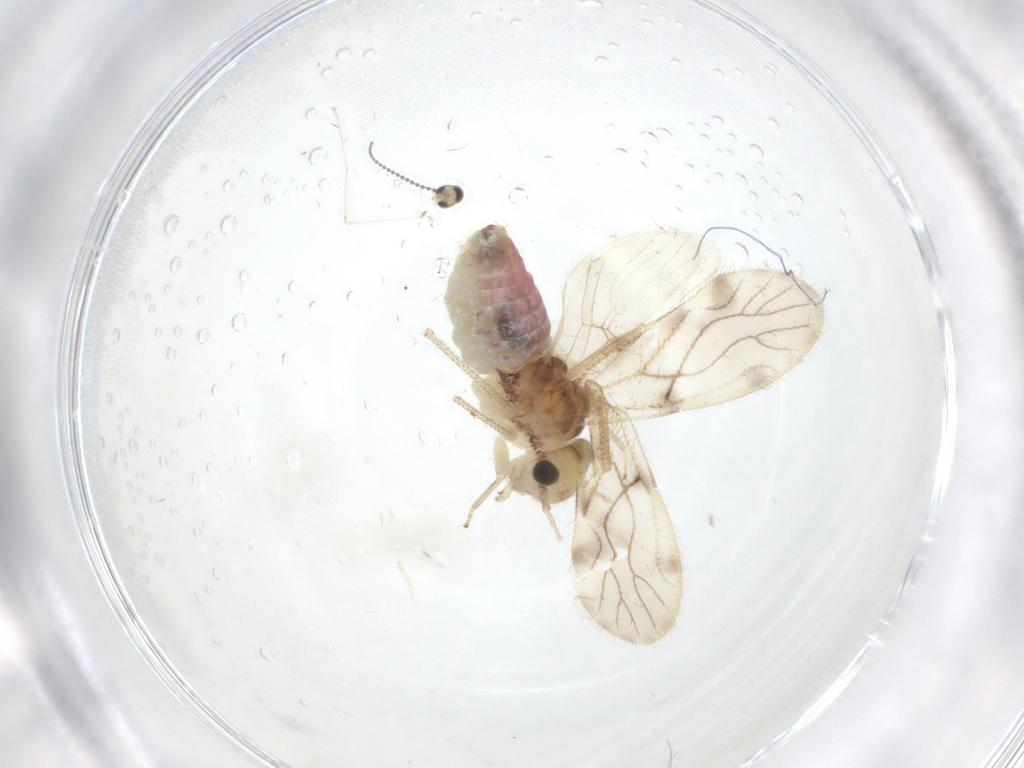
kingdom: Animalia
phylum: Arthropoda
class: Insecta
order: Psocodea
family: Pseudocaeciliidae
